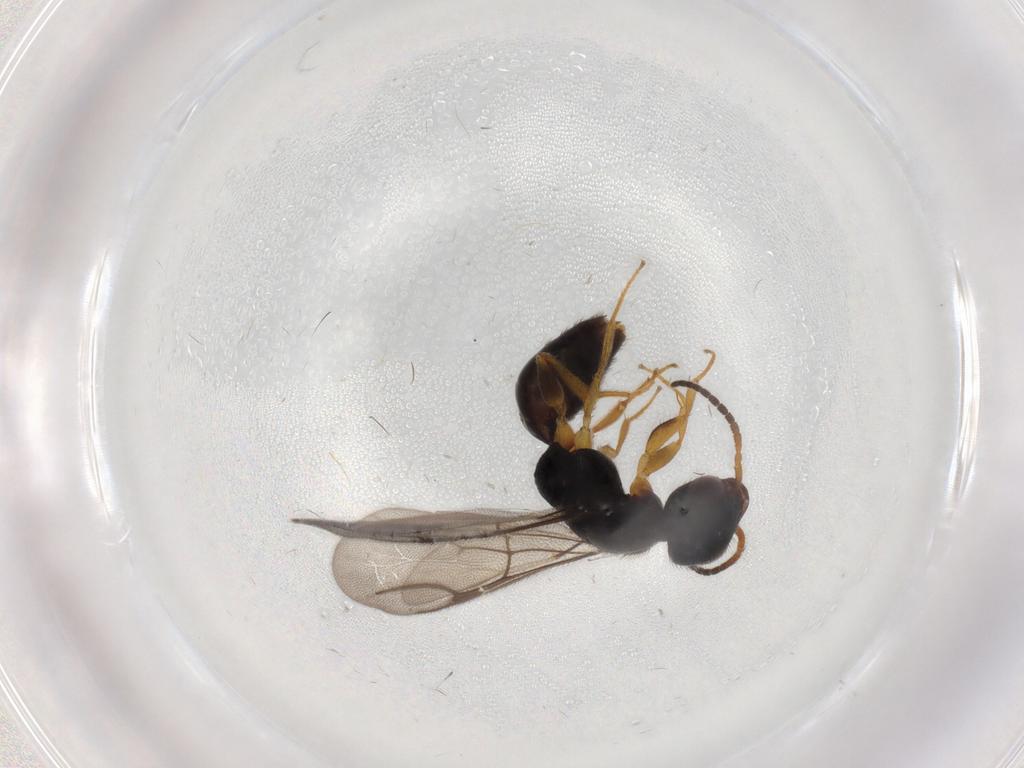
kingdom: Animalia
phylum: Arthropoda
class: Insecta
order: Hymenoptera
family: Bethylidae
